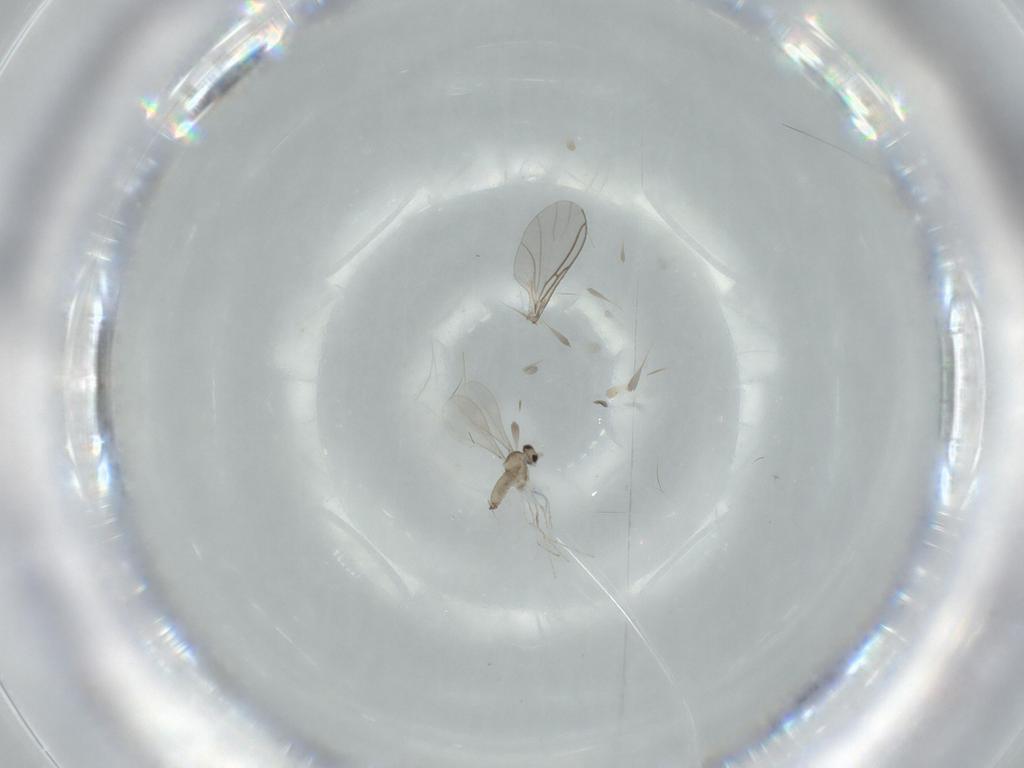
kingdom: Animalia
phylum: Arthropoda
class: Insecta
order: Diptera
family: Cecidomyiidae
